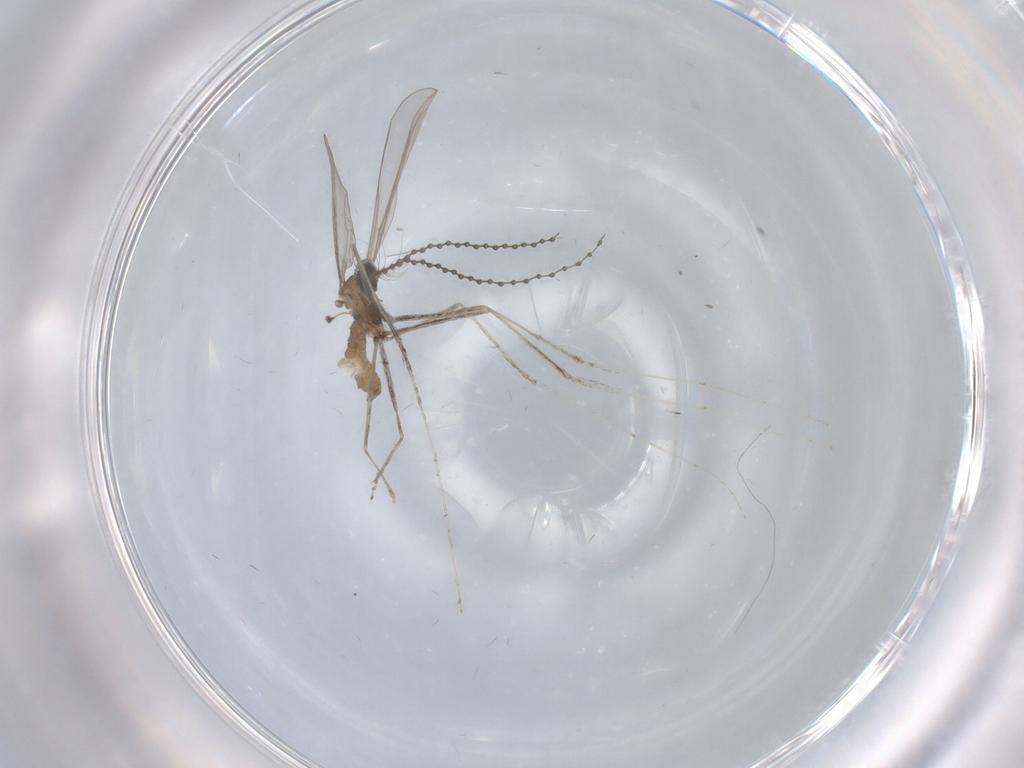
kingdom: Animalia
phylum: Arthropoda
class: Insecta
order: Diptera
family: Cecidomyiidae
